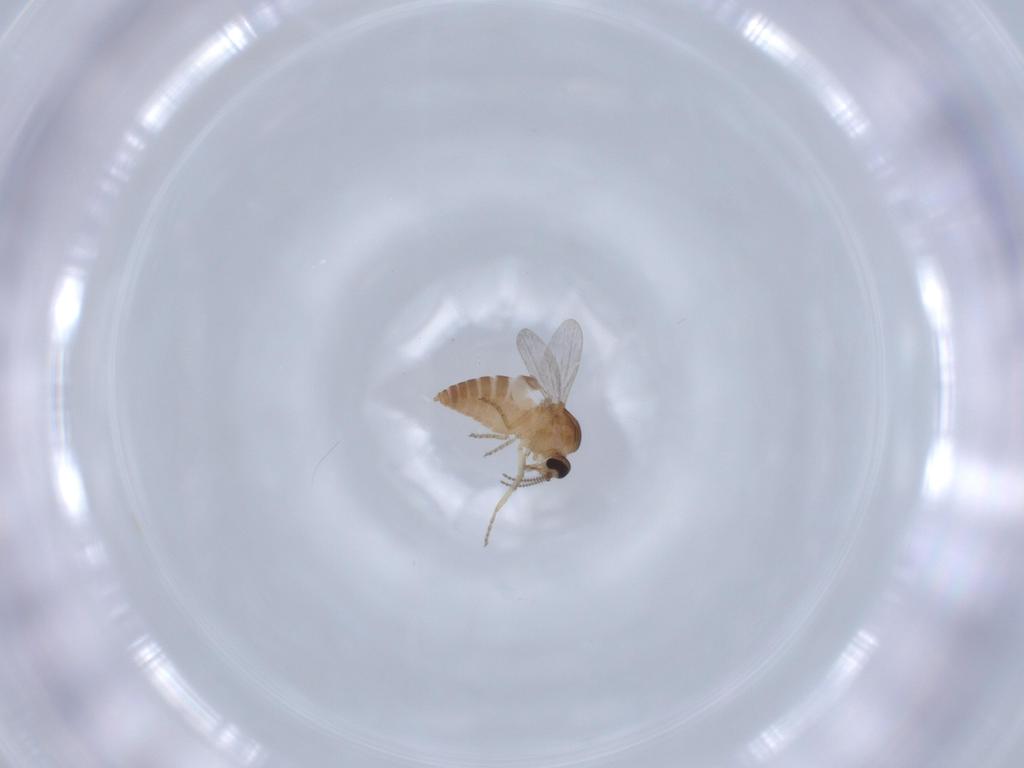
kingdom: Animalia
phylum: Arthropoda
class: Insecta
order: Diptera
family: Ceratopogonidae
